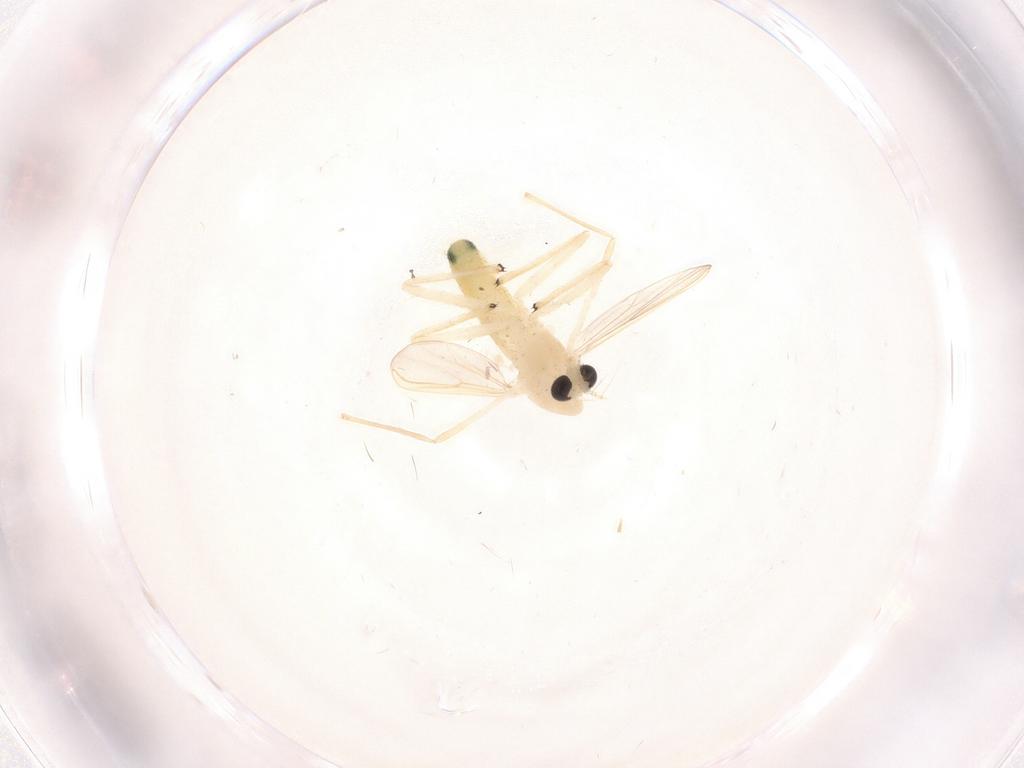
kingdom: Animalia
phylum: Arthropoda
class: Insecta
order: Diptera
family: Chironomidae
